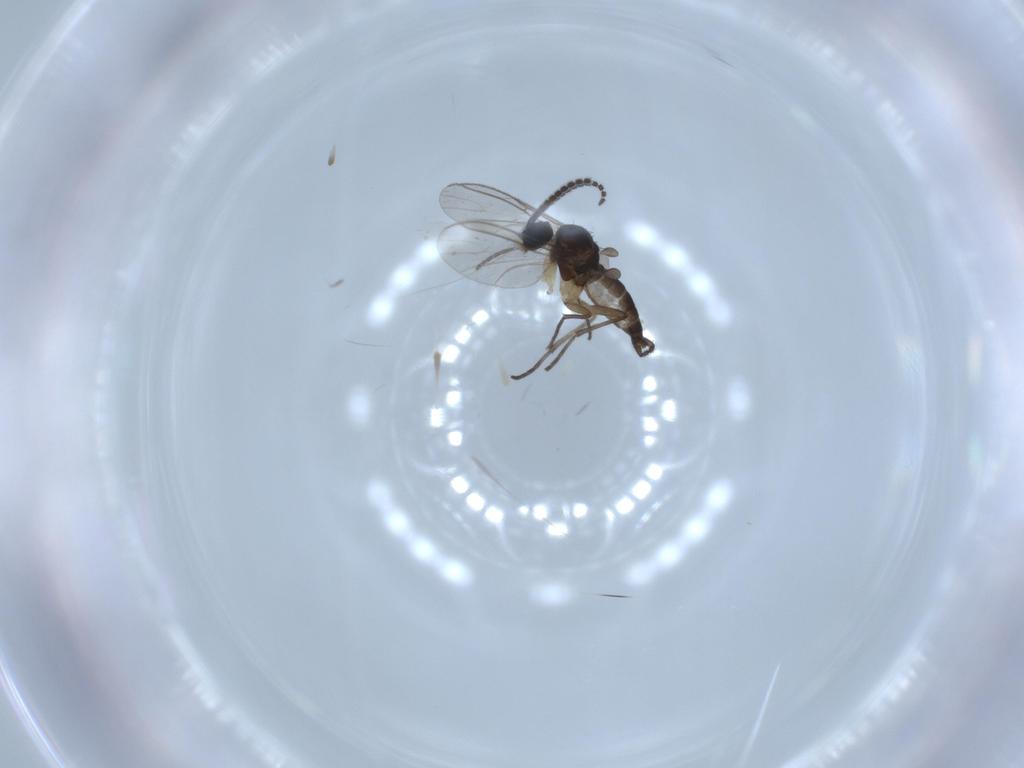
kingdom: Animalia
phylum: Arthropoda
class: Insecta
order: Diptera
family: Sciaridae
